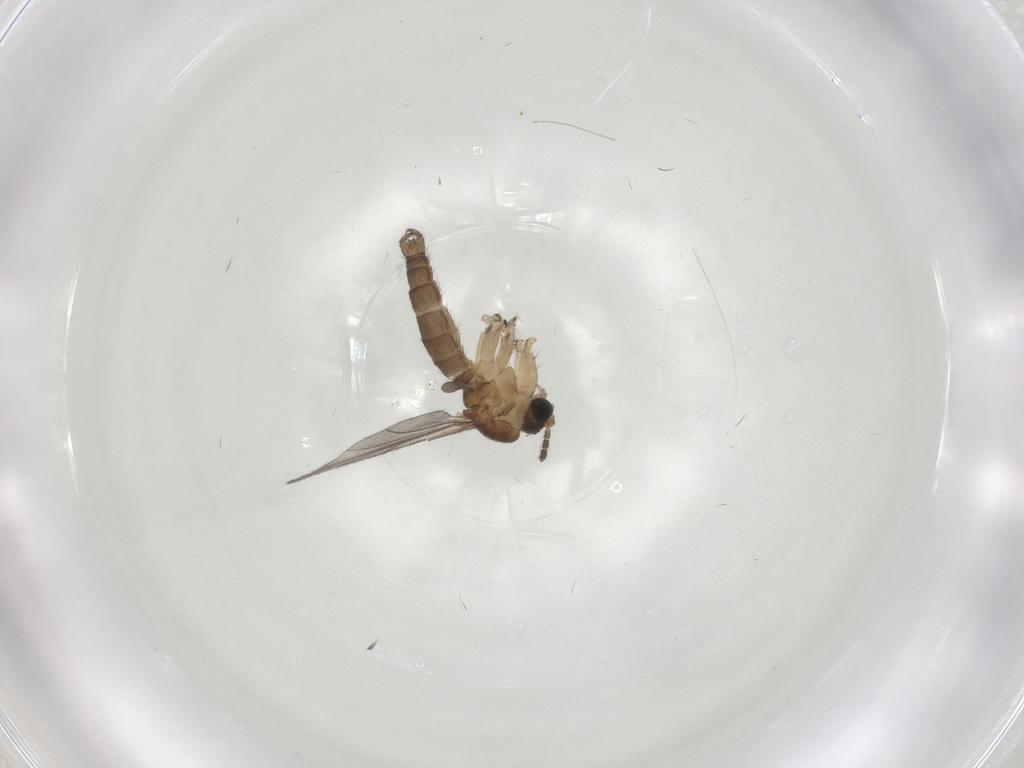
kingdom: Animalia
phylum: Arthropoda
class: Insecta
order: Diptera
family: Sciaridae
